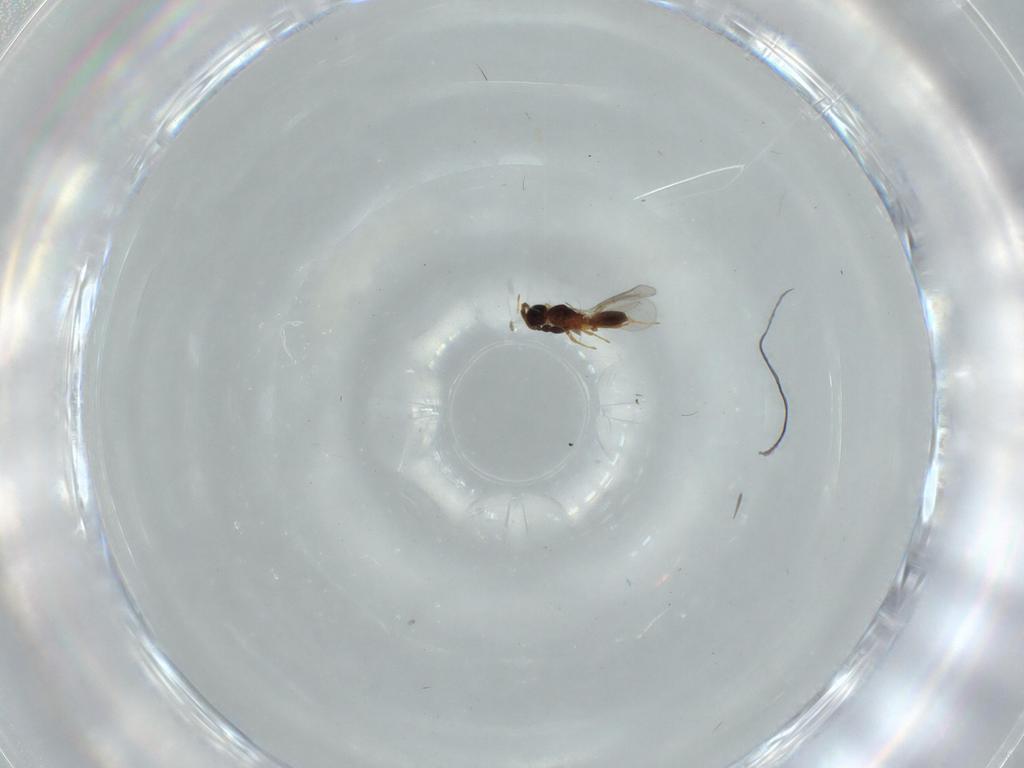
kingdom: Animalia
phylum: Arthropoda
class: Insecta
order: Hymenoptera
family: Diapriidae
